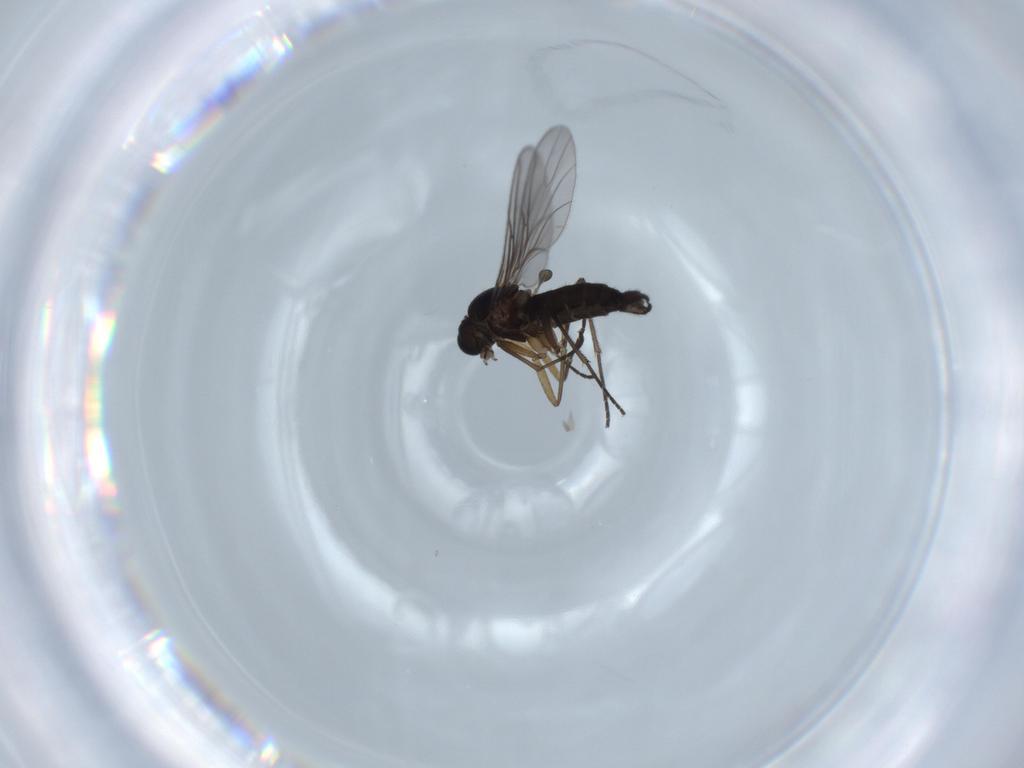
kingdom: Animalia
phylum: Arthropoda
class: Insecta
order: Diptera
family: Sciaridae
